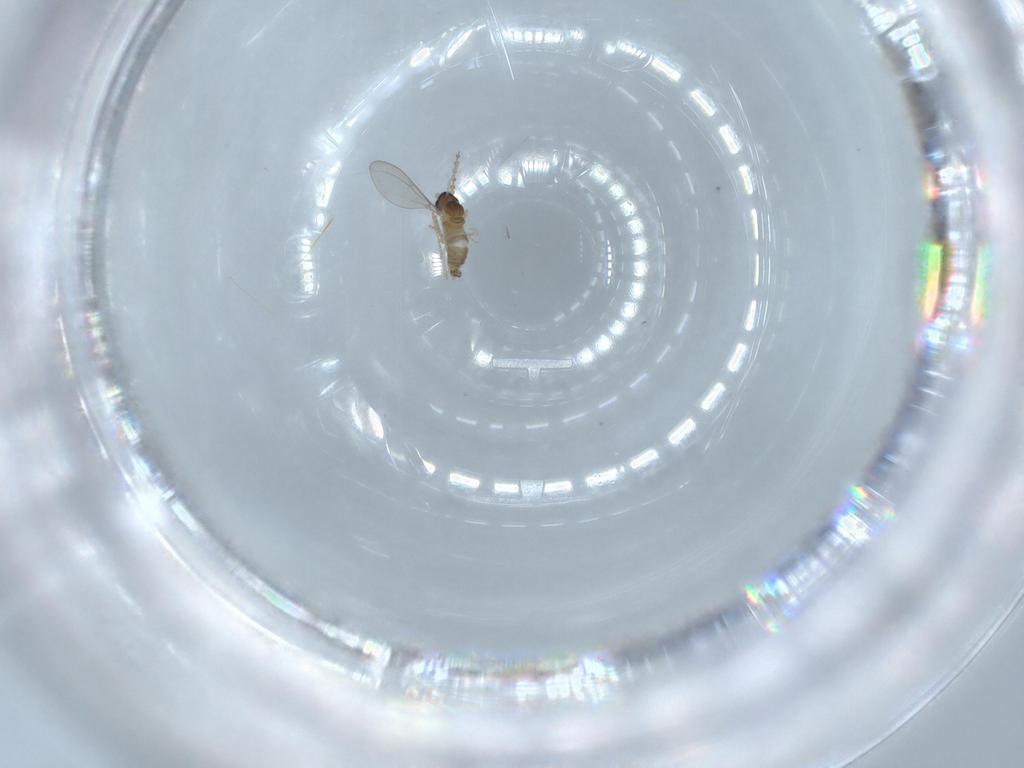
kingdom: Animalia
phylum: Arthropoda
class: Insecta
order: Diptera
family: Cecidomyiidae
